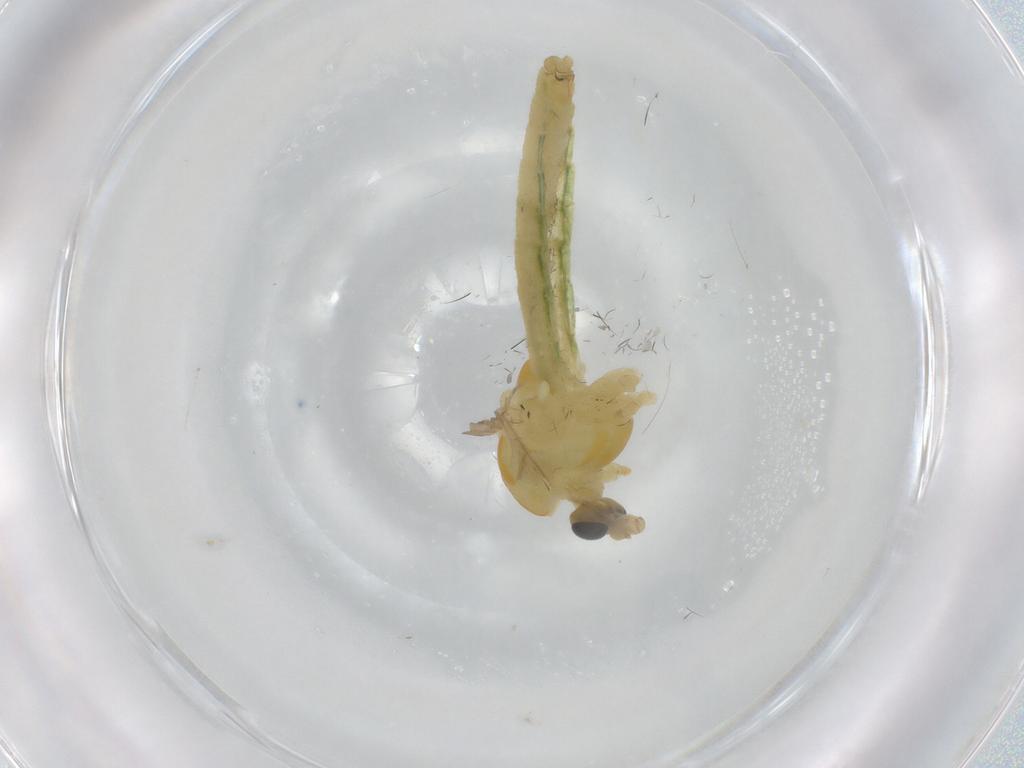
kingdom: Animalia
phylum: Arthropoda
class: Insecta
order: Diptera
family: Chironomidae
